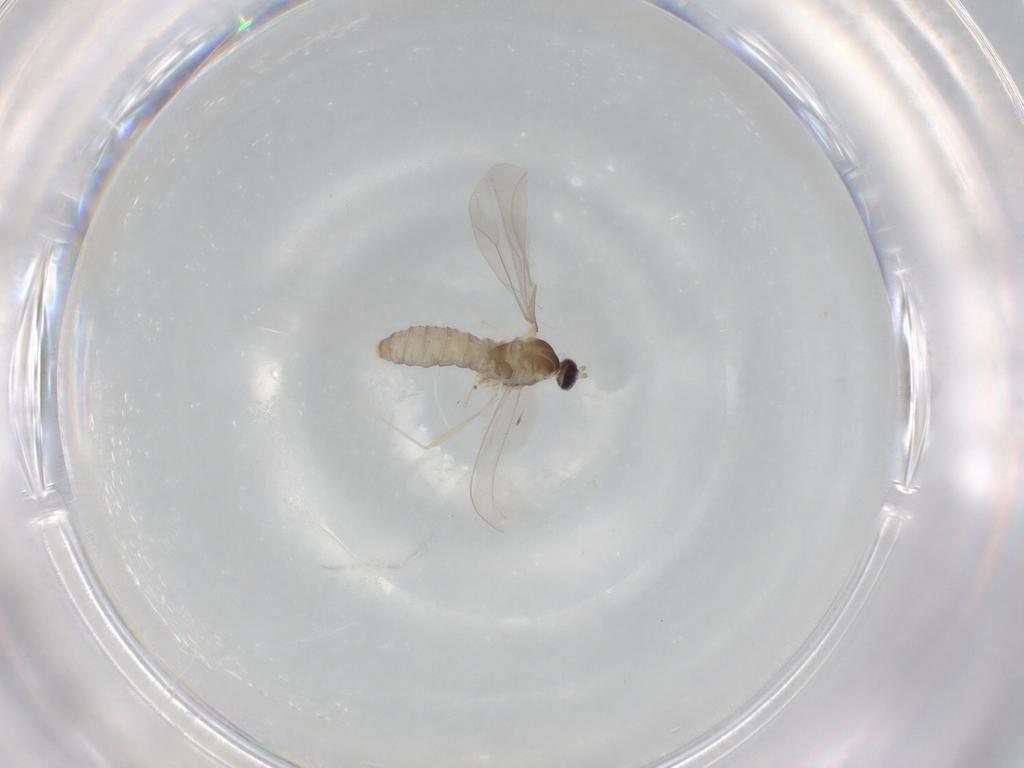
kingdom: Animalia
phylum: Arthropoda
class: Insecta
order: Diptera
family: Cecidomyiidae
